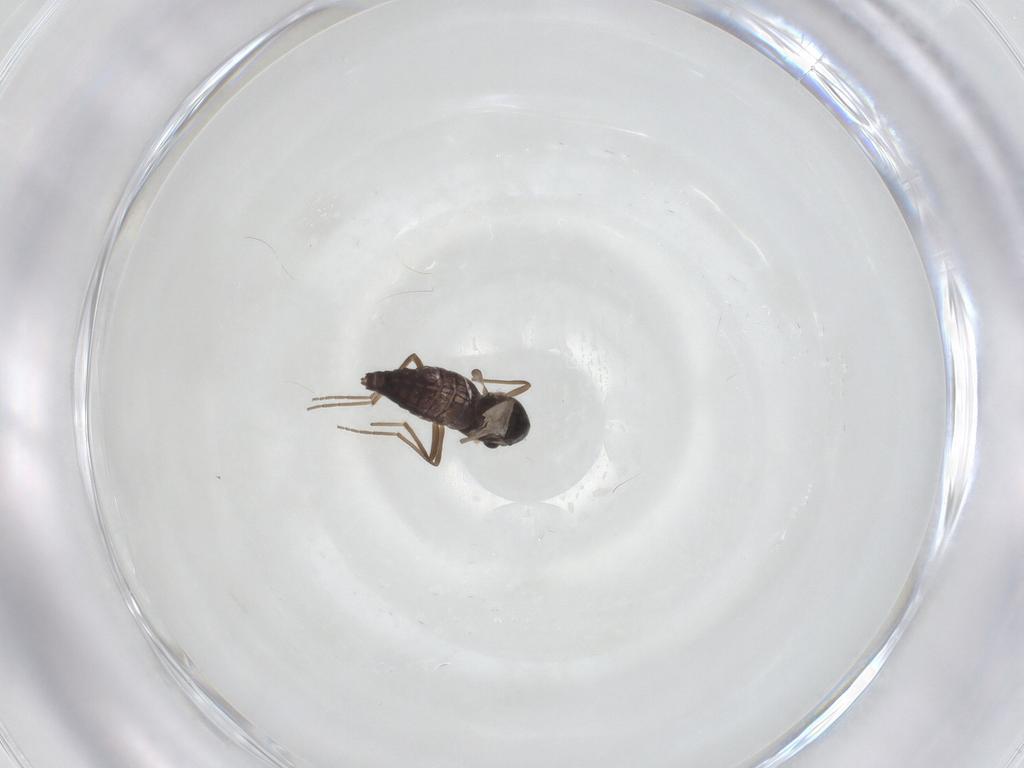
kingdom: Animalia
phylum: Arthropoda
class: Insecta
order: Diptera
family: Chironomidae
